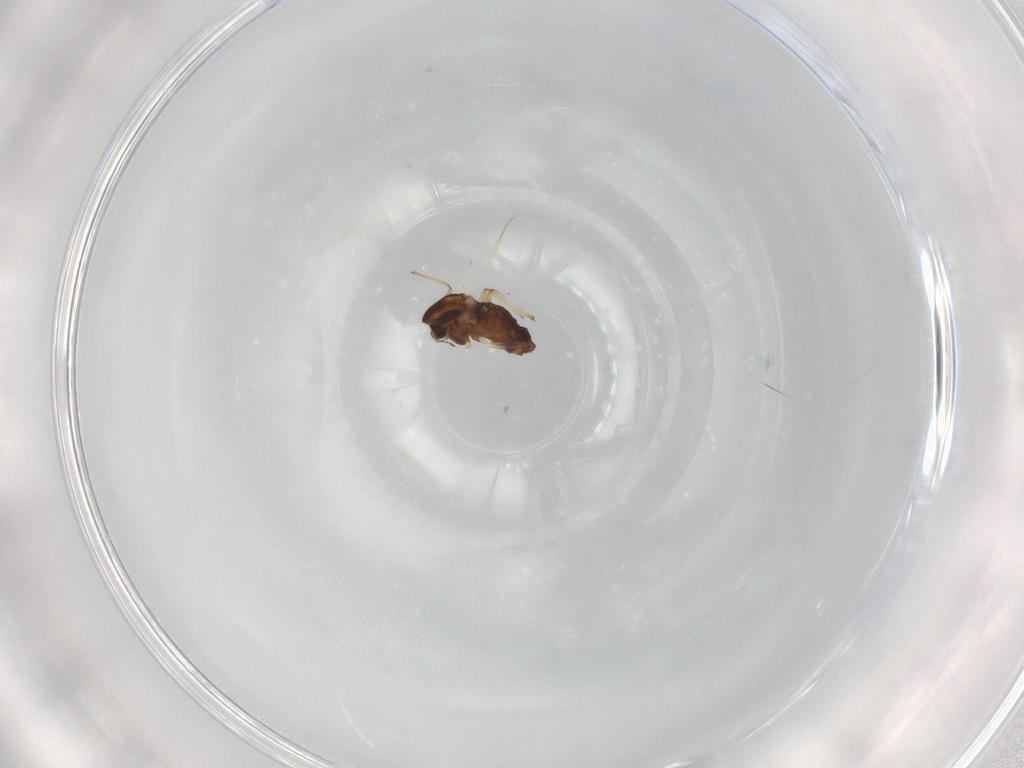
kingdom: Animalia
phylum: Arthropoda
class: Insecta
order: Diptera
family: Chironomidae
